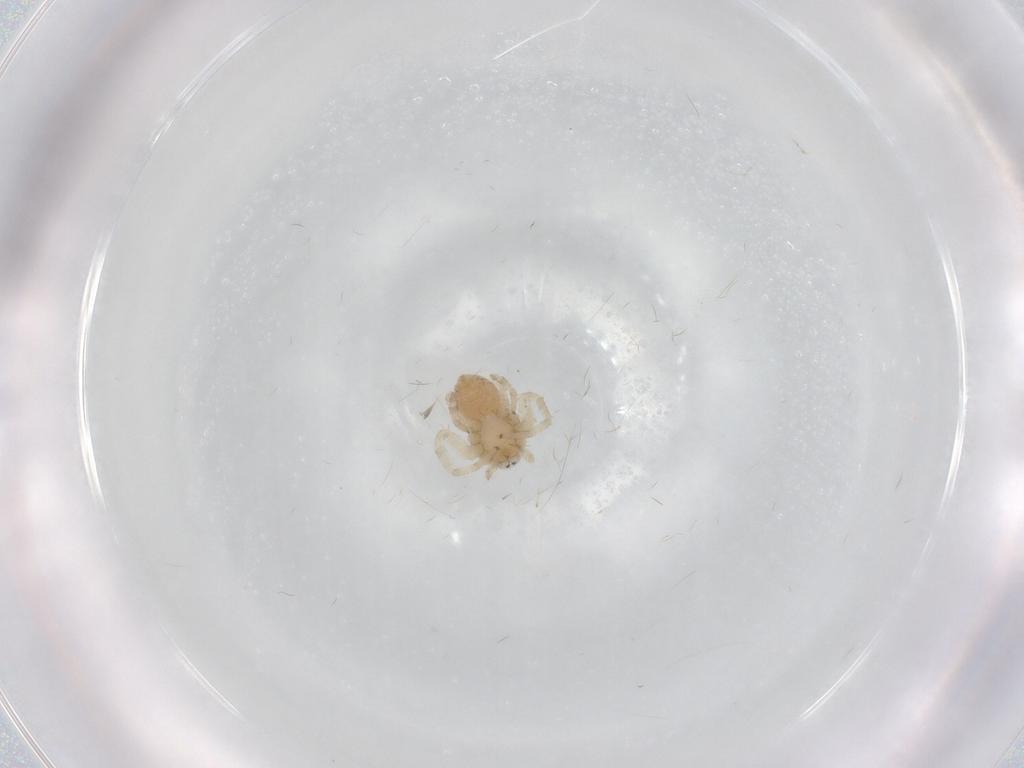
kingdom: Animalia
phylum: Arthropoda
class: Arachnida
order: Araneae
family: Philodromidae
